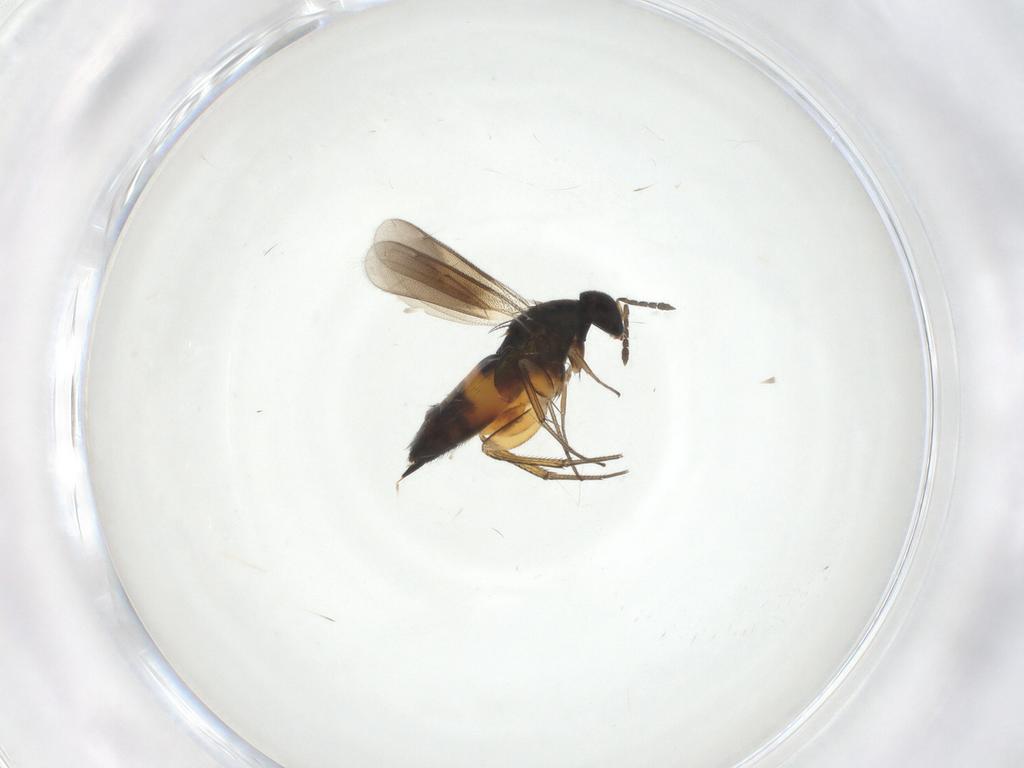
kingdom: Animalia
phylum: Arthropoda
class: Insecta
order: Hymenoptera
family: Eulophidae
